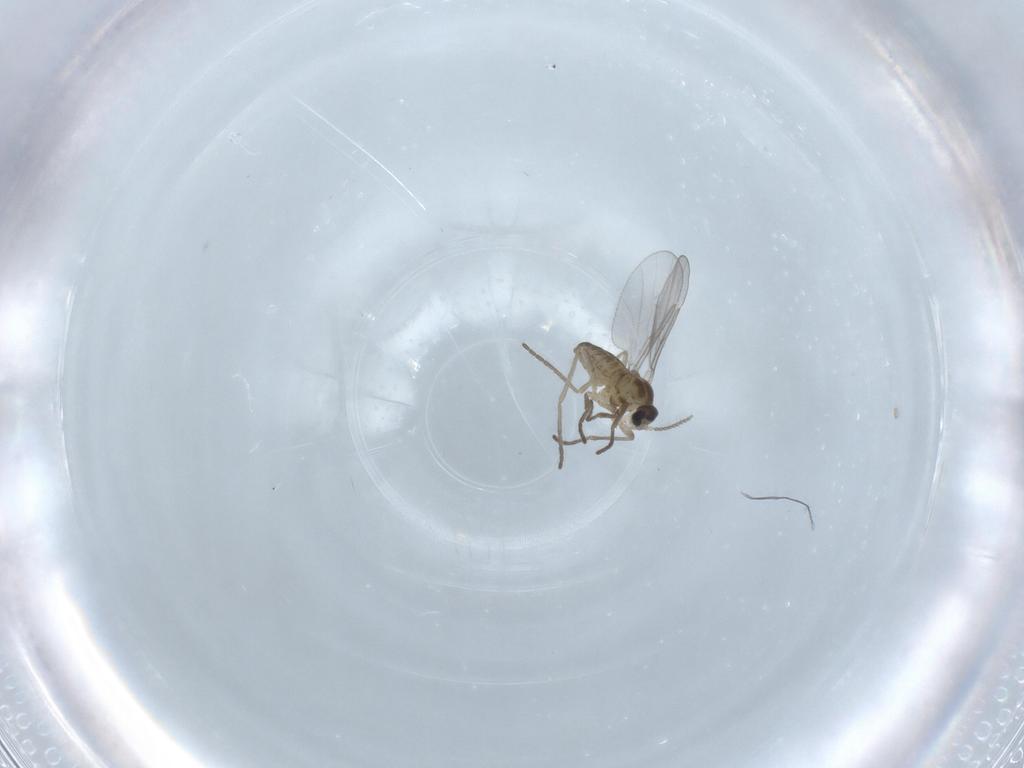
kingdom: Animalia
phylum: Arthropoda
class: Insecta
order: Diptera
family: Cecidomyiidae
